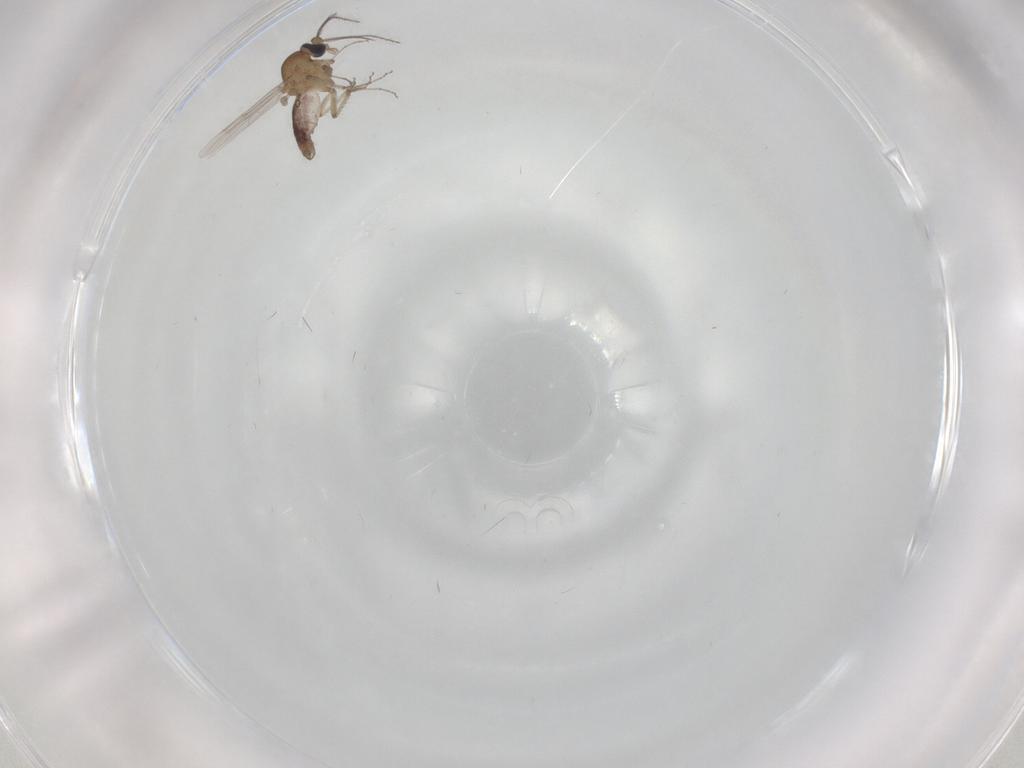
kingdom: Animalia
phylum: Arthropoda
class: Insecta
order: Diptera
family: Ceratopogonidae
